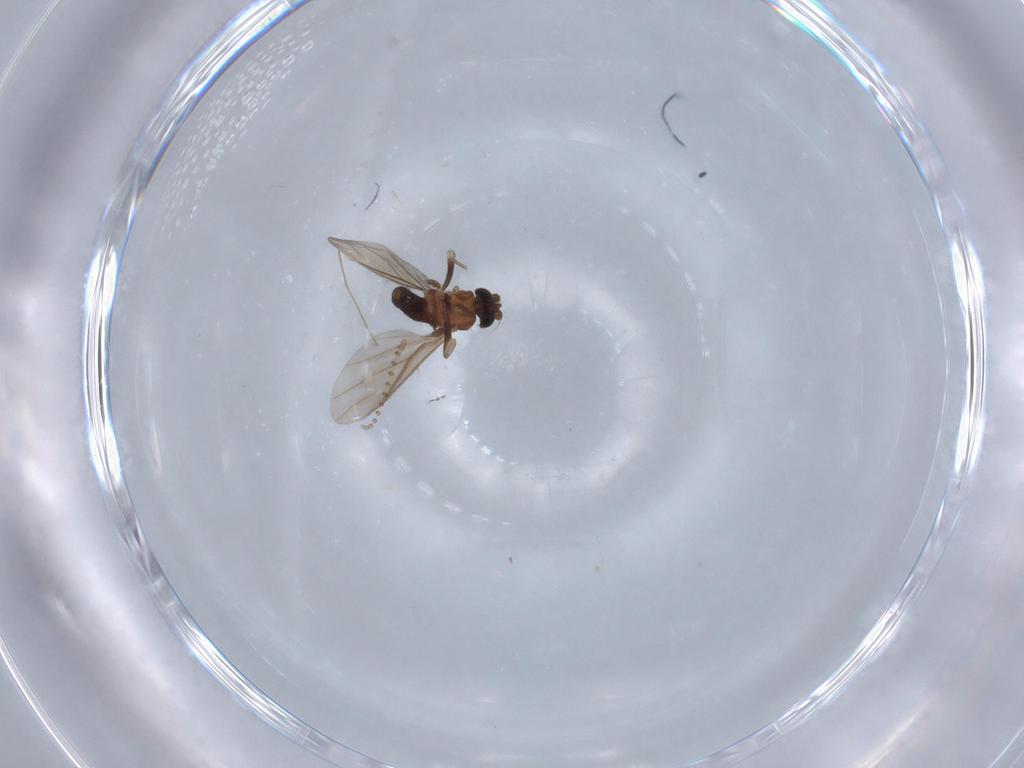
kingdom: Animalia
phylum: Arthropoda
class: Insecta
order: Diptera
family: Phoridae
